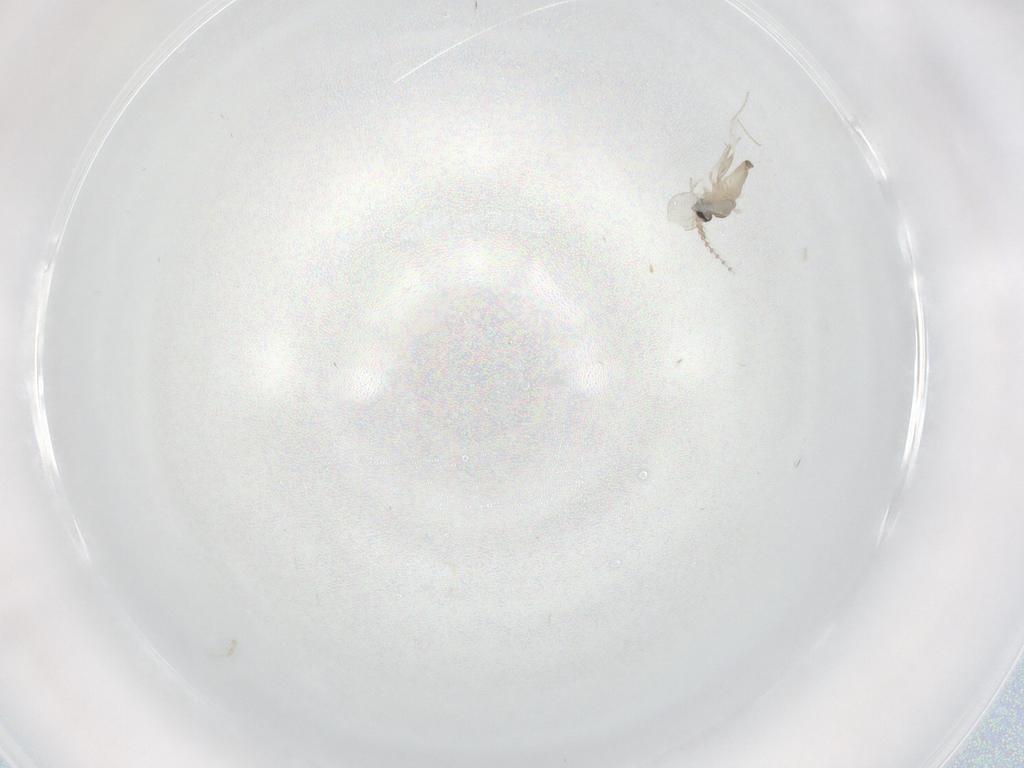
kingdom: Animalia
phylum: Arthropoda
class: Insecta
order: Diptera
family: Cecidomyiidae
